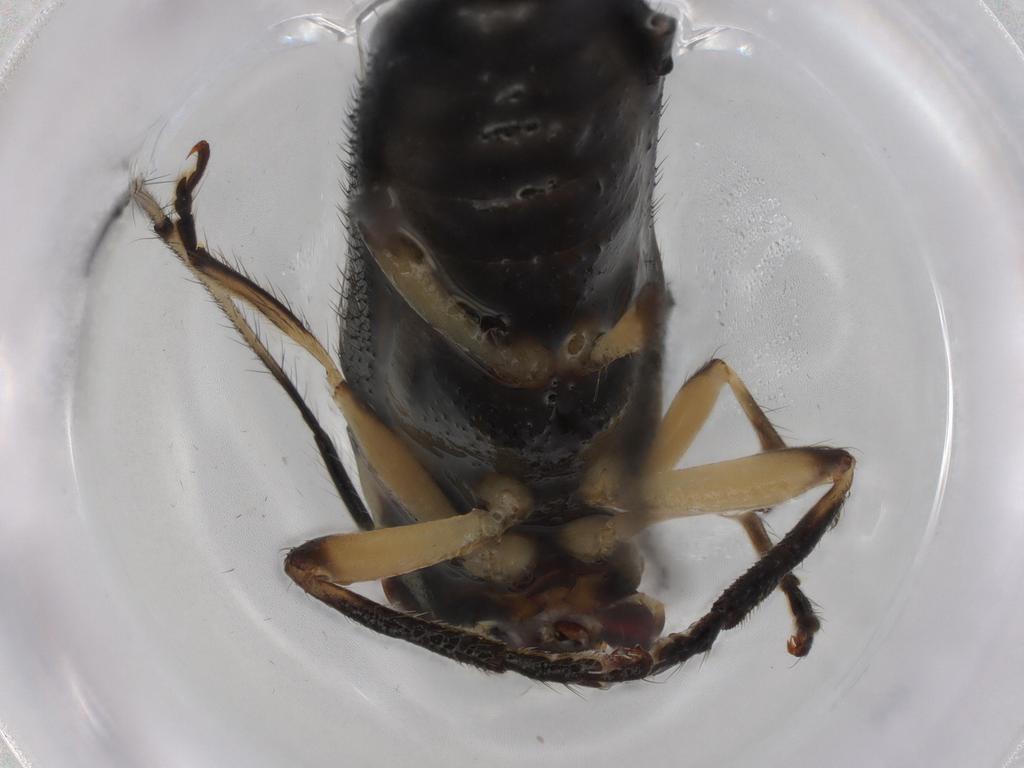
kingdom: Animalia
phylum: Arthropoda
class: Insecta
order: Coleoptera
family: Nitidulidae
